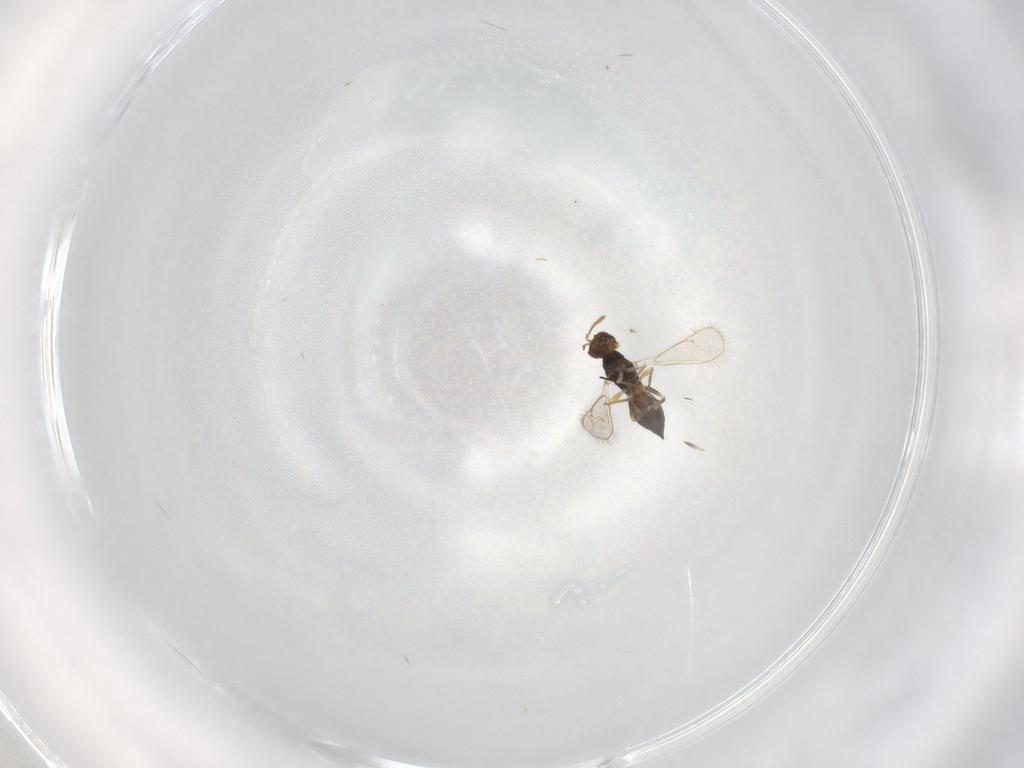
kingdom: Animalia
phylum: Arthropoda
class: Insecta
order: Hymenoptera
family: Eulophidae
